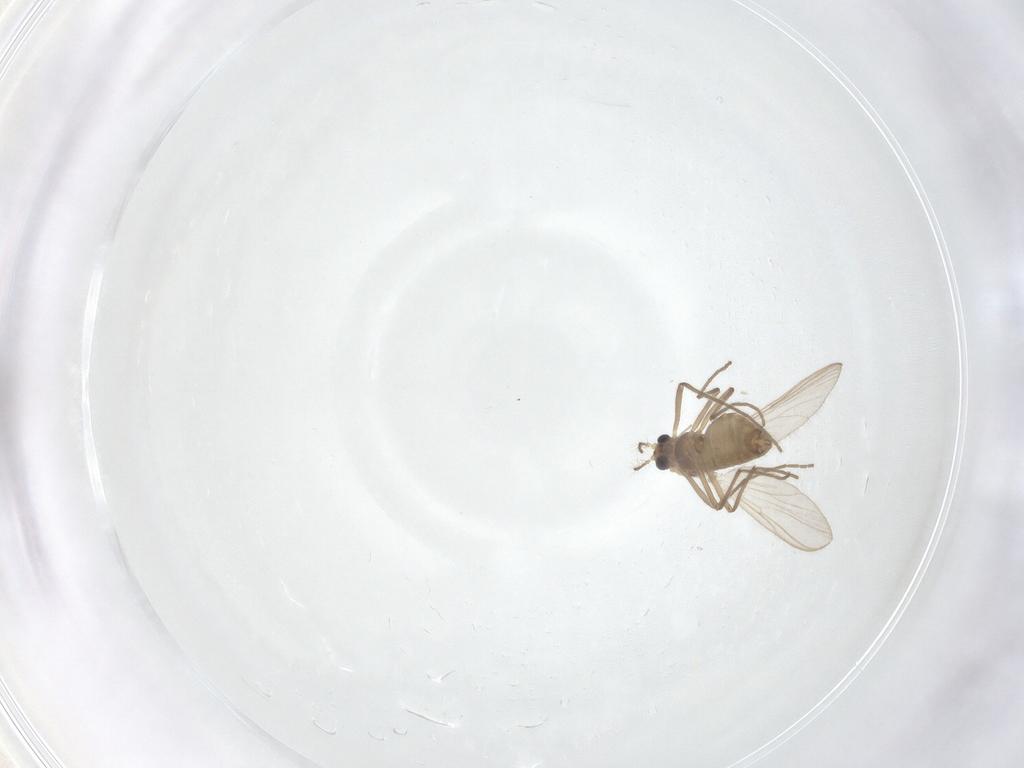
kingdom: Animalia
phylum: Arthropoda
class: Insecta
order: Diptera
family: Chironomidae
